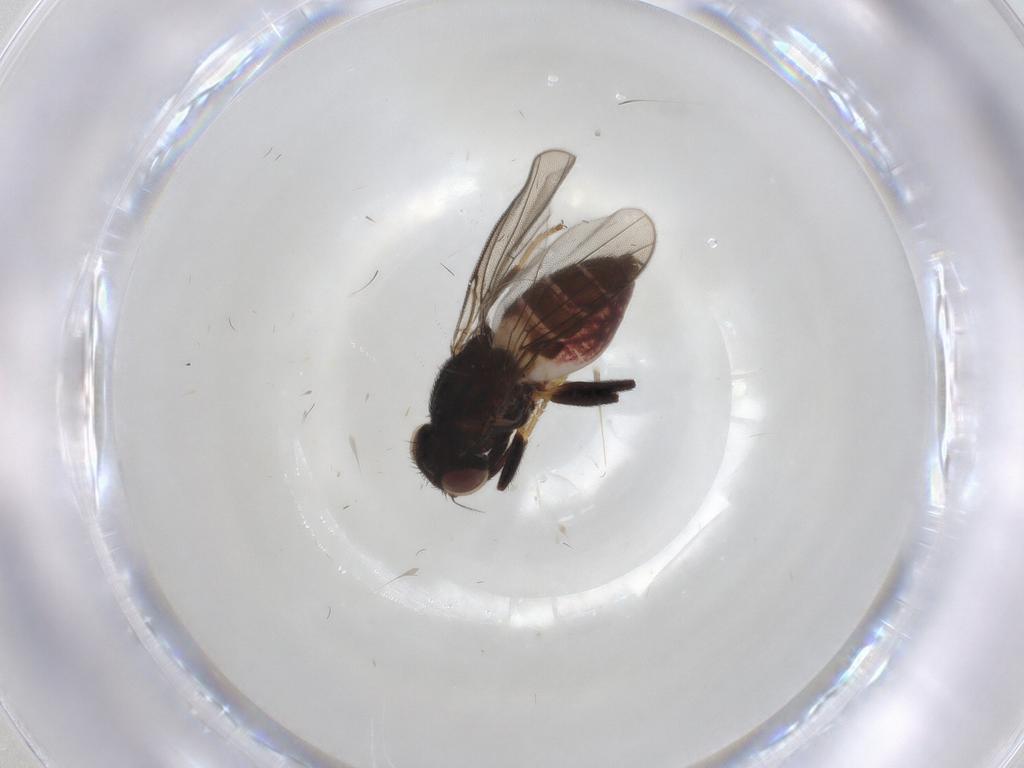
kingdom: Animalia
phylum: Arthropoda
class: Insecta
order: Diptera
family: Chloropidae
